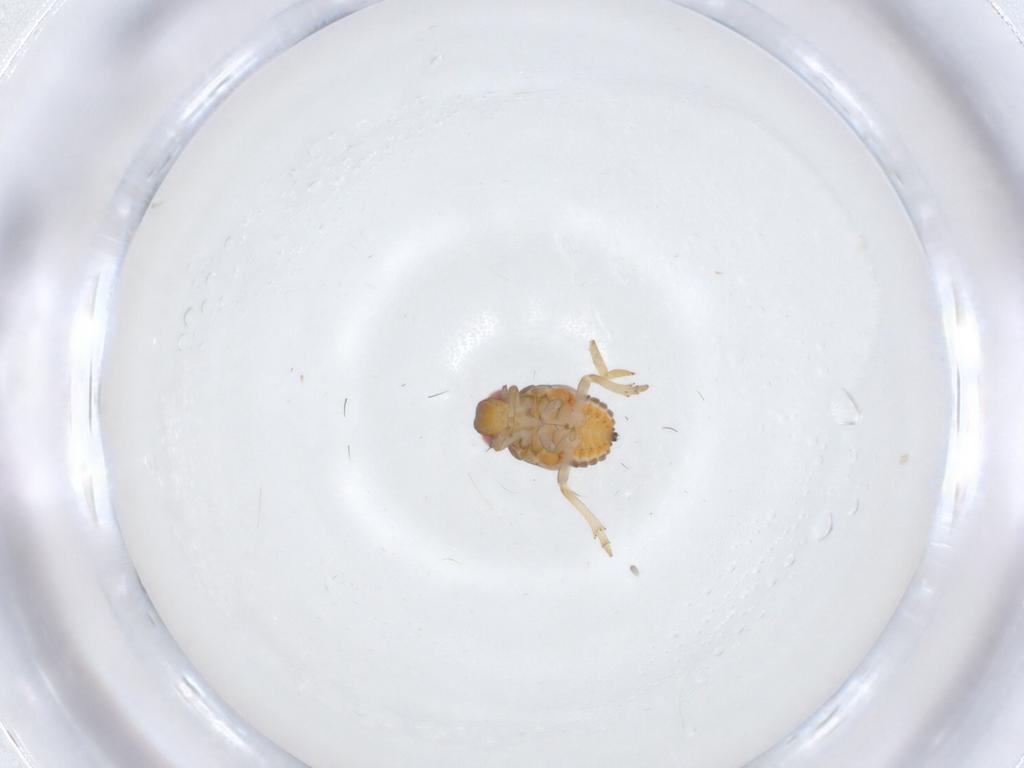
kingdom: Animalia
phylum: Arthropoda
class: Insecta
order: Hemiptera
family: Issidae
